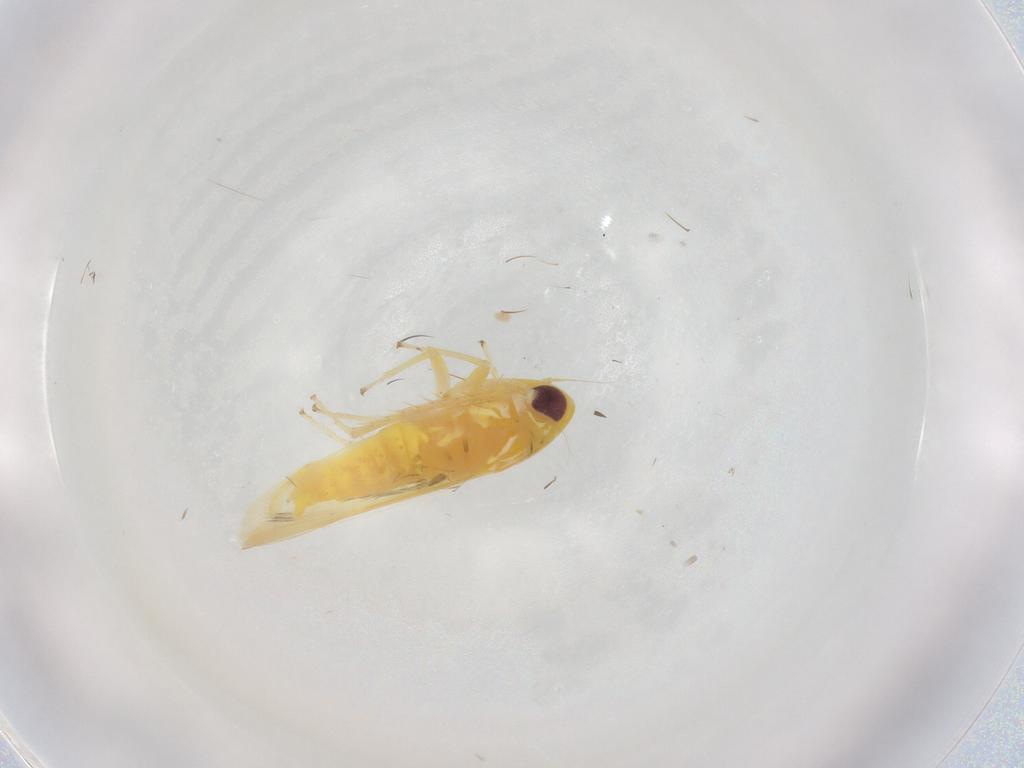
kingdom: Animalia
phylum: Arthropoda
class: Insecta
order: Hemiptera
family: Cicadellidae
